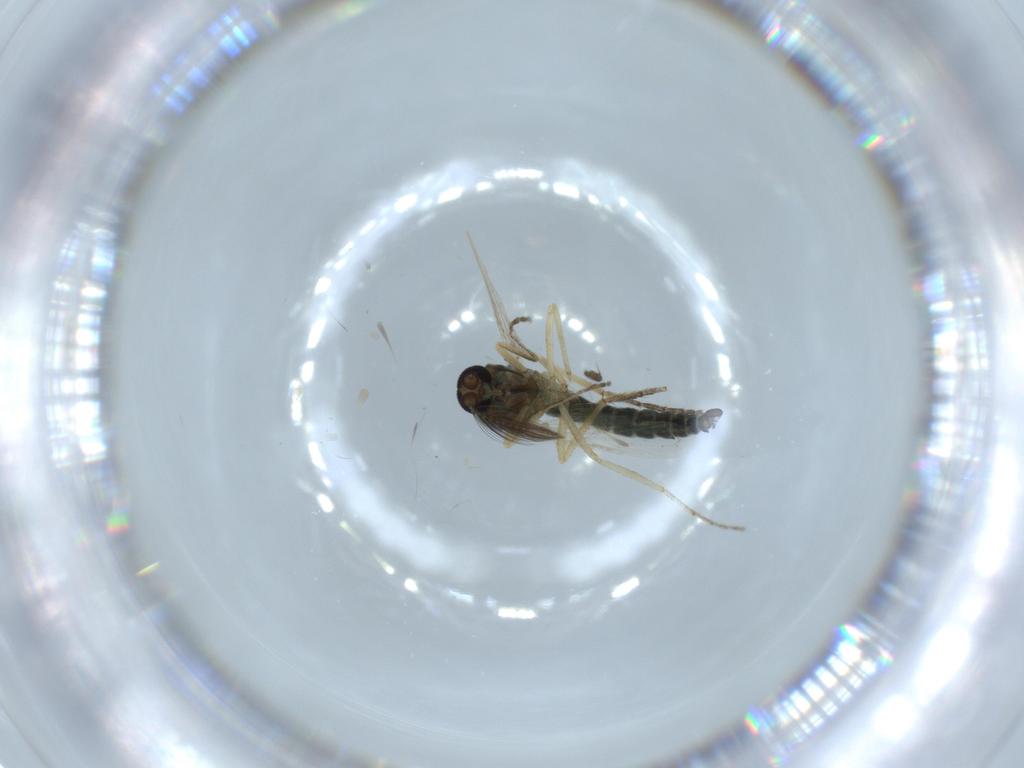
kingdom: Animalia
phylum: Arthropoda
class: Insecta
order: Diptera
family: Ceratopogonidae
